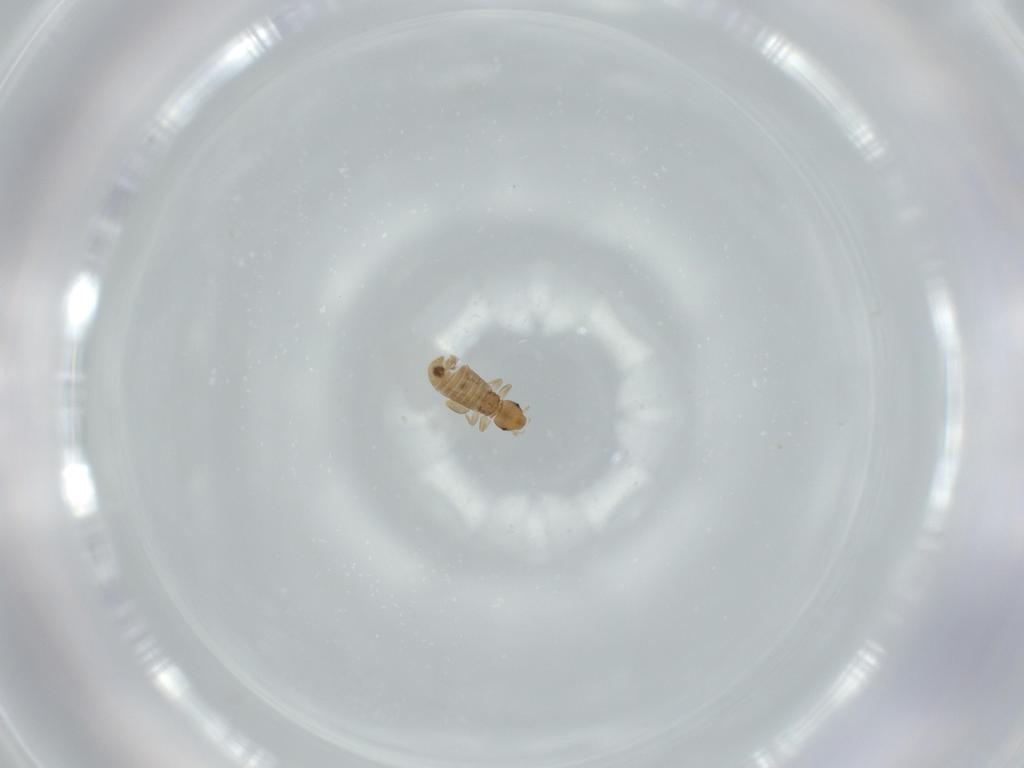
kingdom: Animalia
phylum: Arthropoda
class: Insecta
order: Psocodea
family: Liposcelididae
